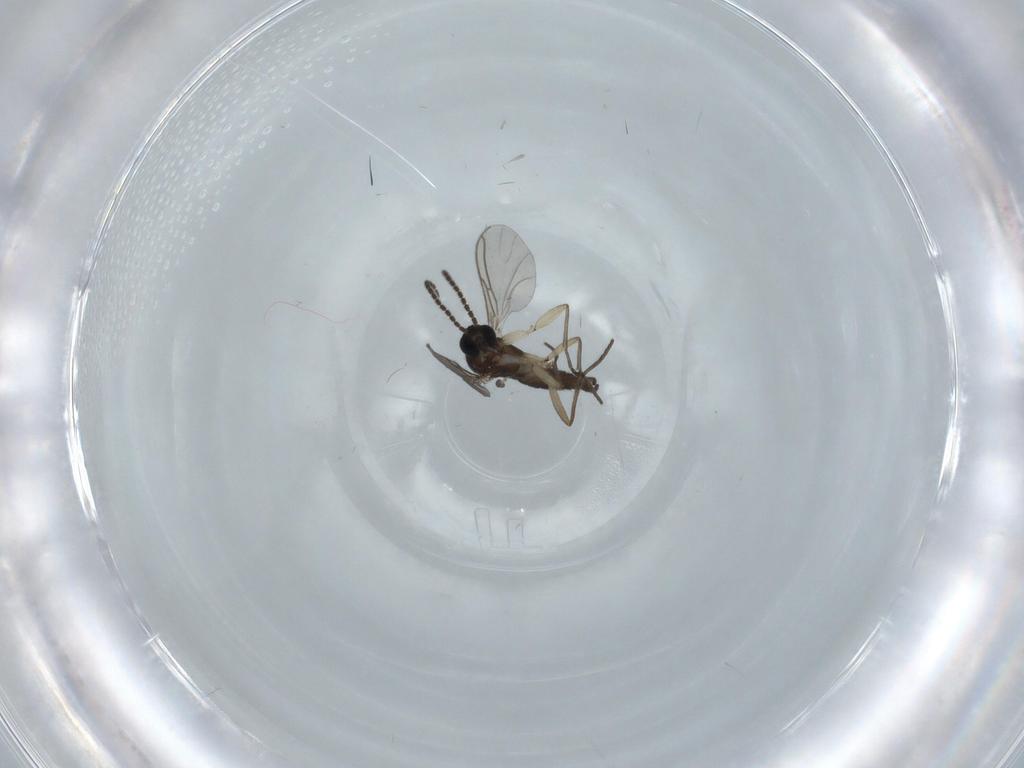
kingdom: Animalia
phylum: Arthropoda
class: Insecta
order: Diptera
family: Sciaridae
